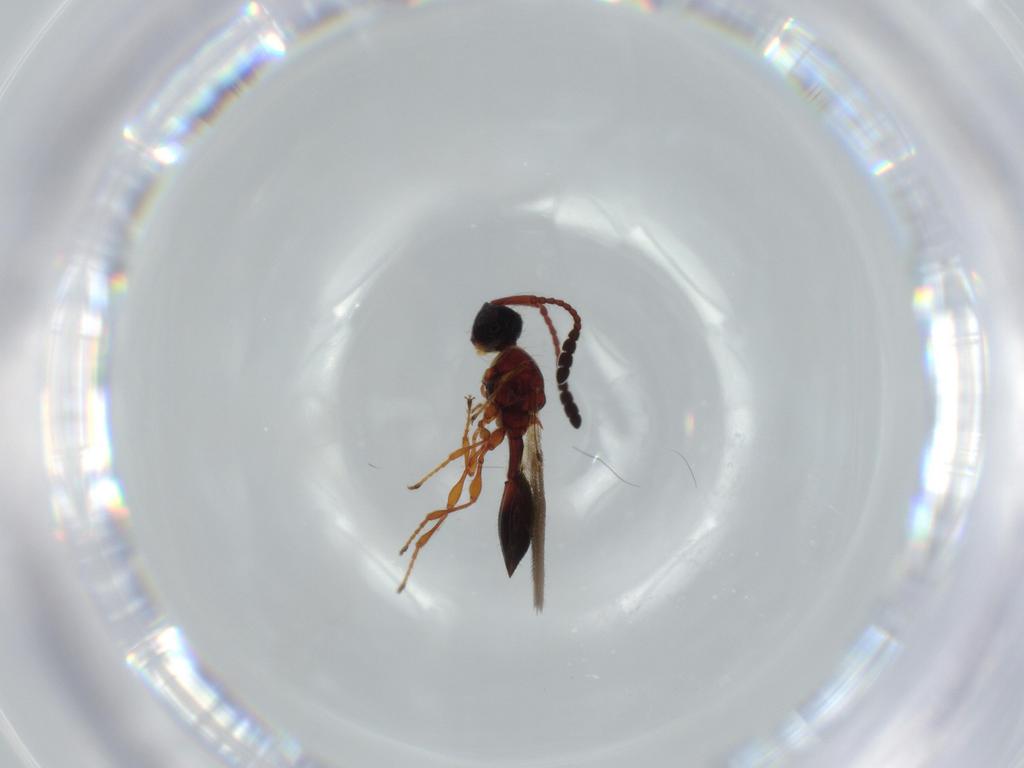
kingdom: Animalia
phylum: Arthropoda
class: Insecta
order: Hymenoptera
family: Diapriidae
